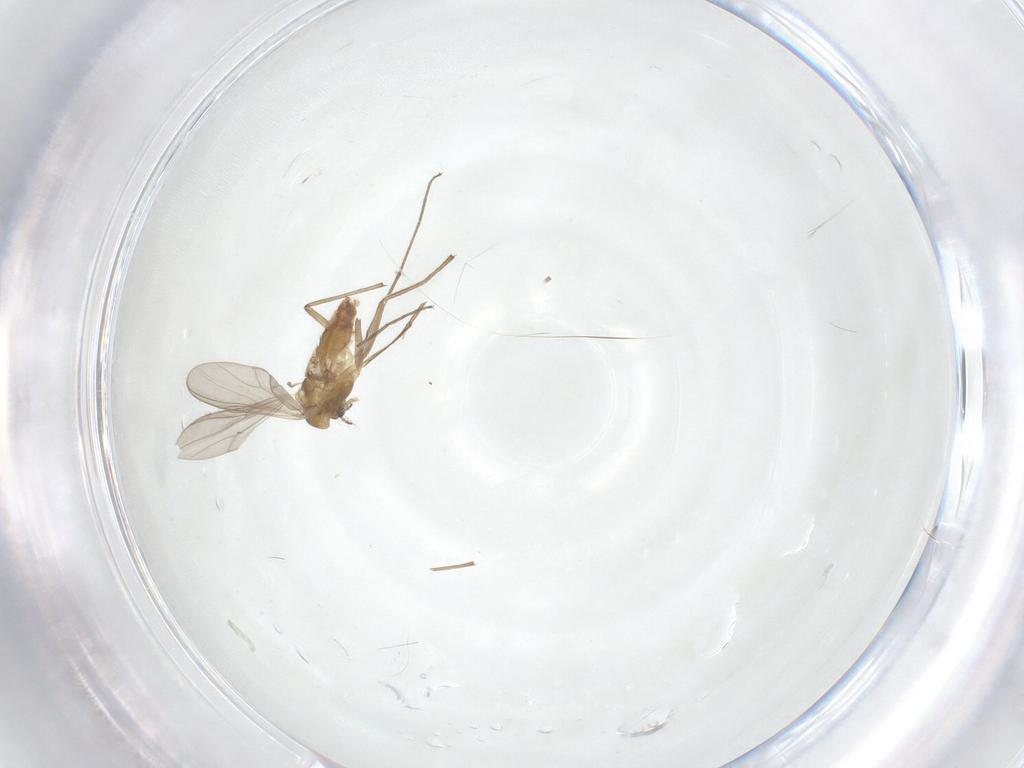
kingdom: Animalia
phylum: Arthropoda
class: Insecta
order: Diptera
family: Chironomidae
